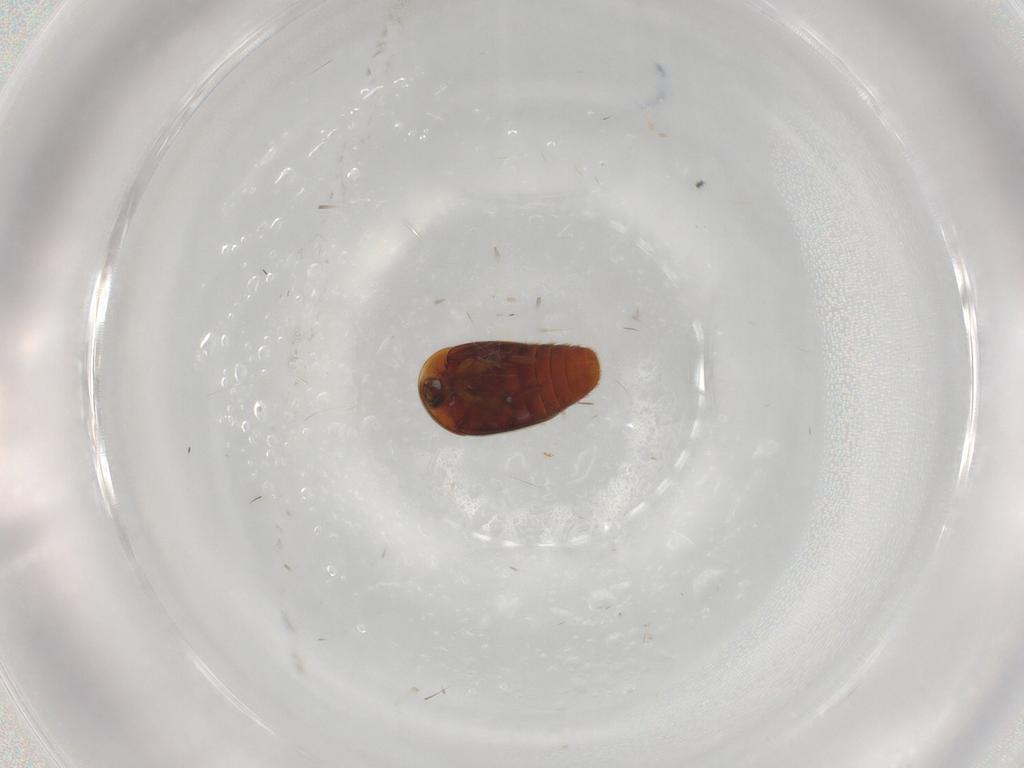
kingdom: Animalia
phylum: Arthropoda
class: Insecta
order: Coleoptera
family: Corylophidae
